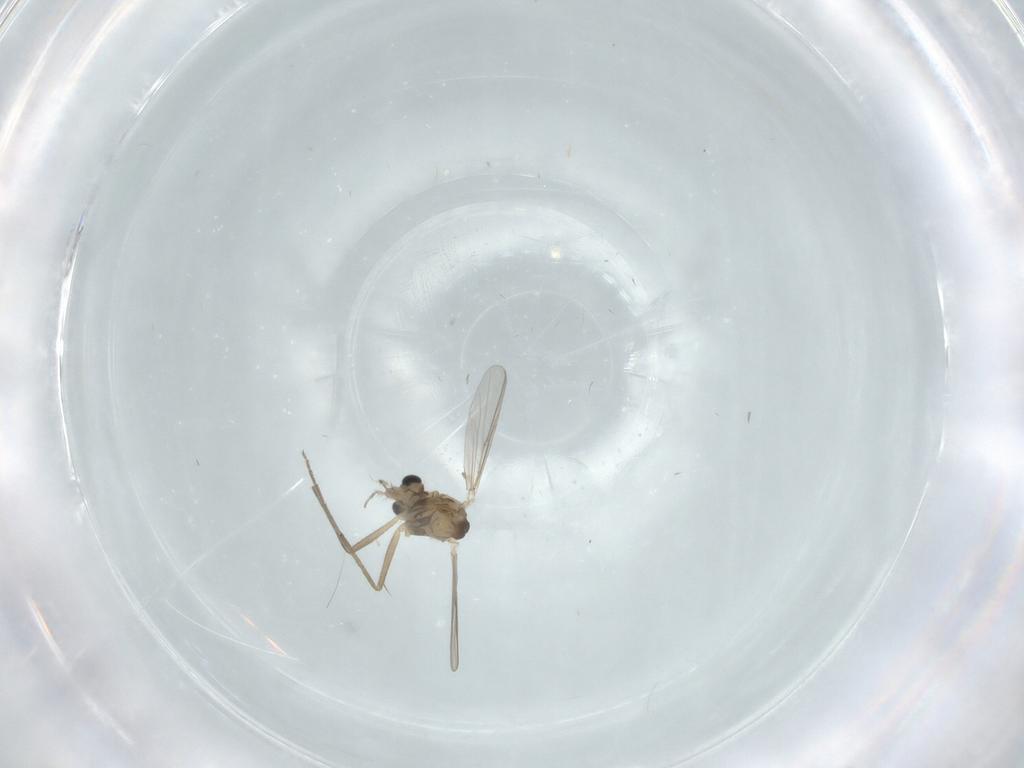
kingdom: Animalia
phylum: Arthropoda
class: Insecta
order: Diptera
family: Chironomidae
